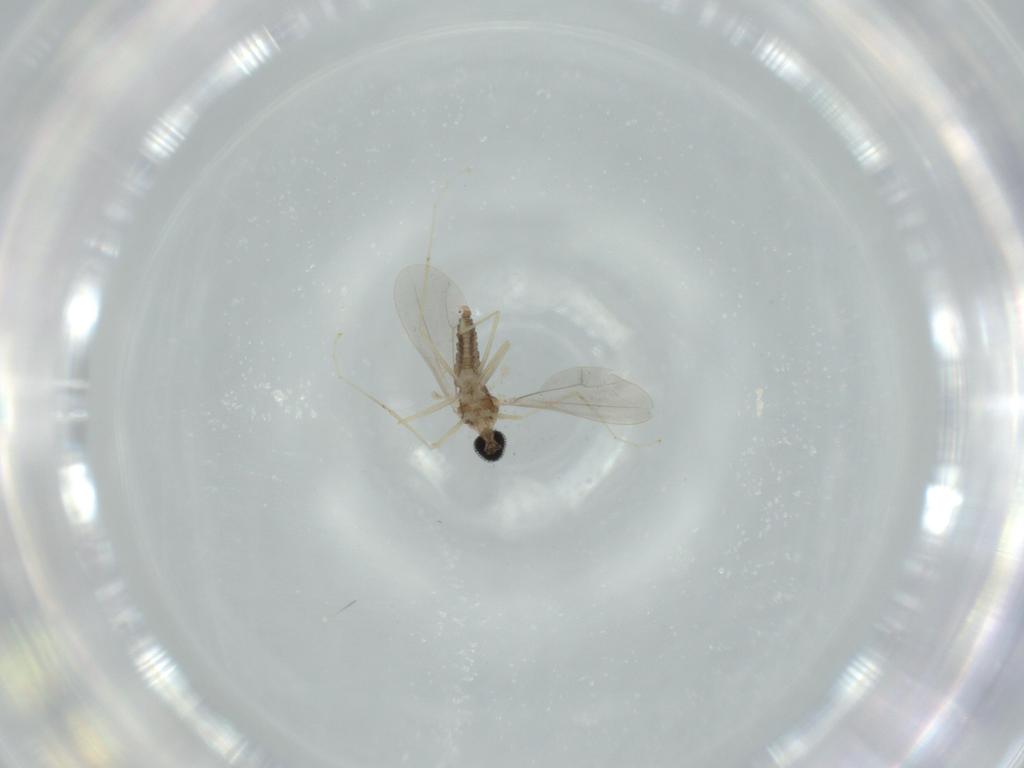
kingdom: Animalia
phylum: Arthropoda
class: Insecta
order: Diptera
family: Cecidomyiidae
